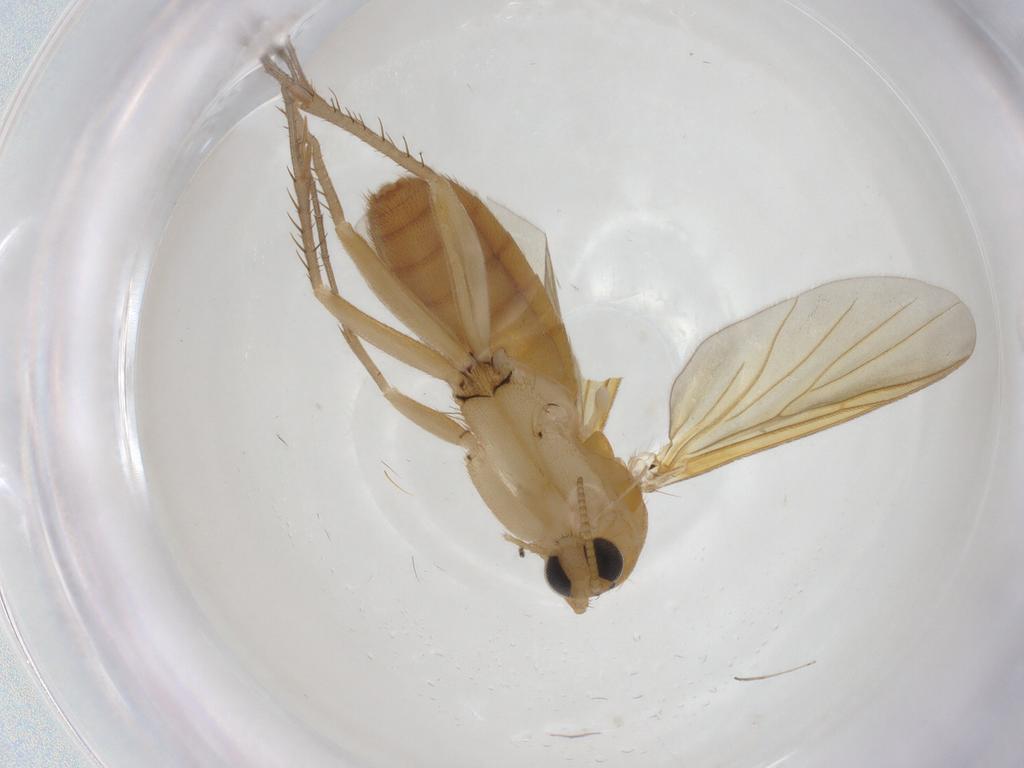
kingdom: Animalia
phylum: Arthropoda
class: Insecta
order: Diptera
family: Mycetophilidae
